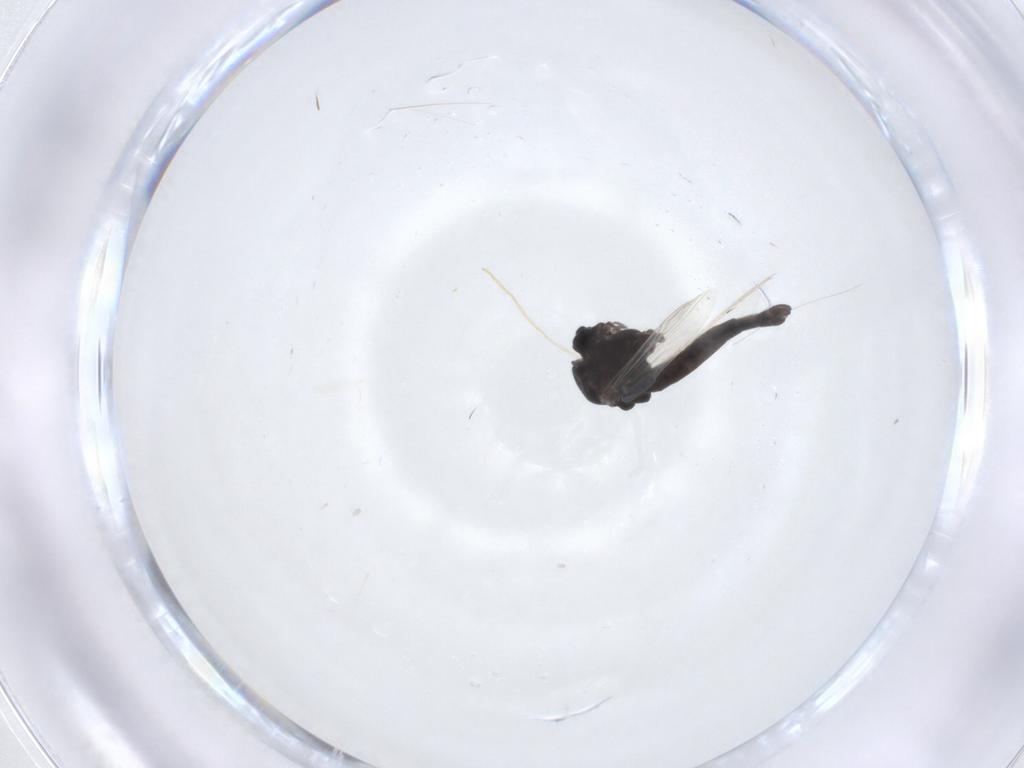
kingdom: Animalia
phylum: Arthropoda
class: Insecta
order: Diptera
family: Chironomidae
